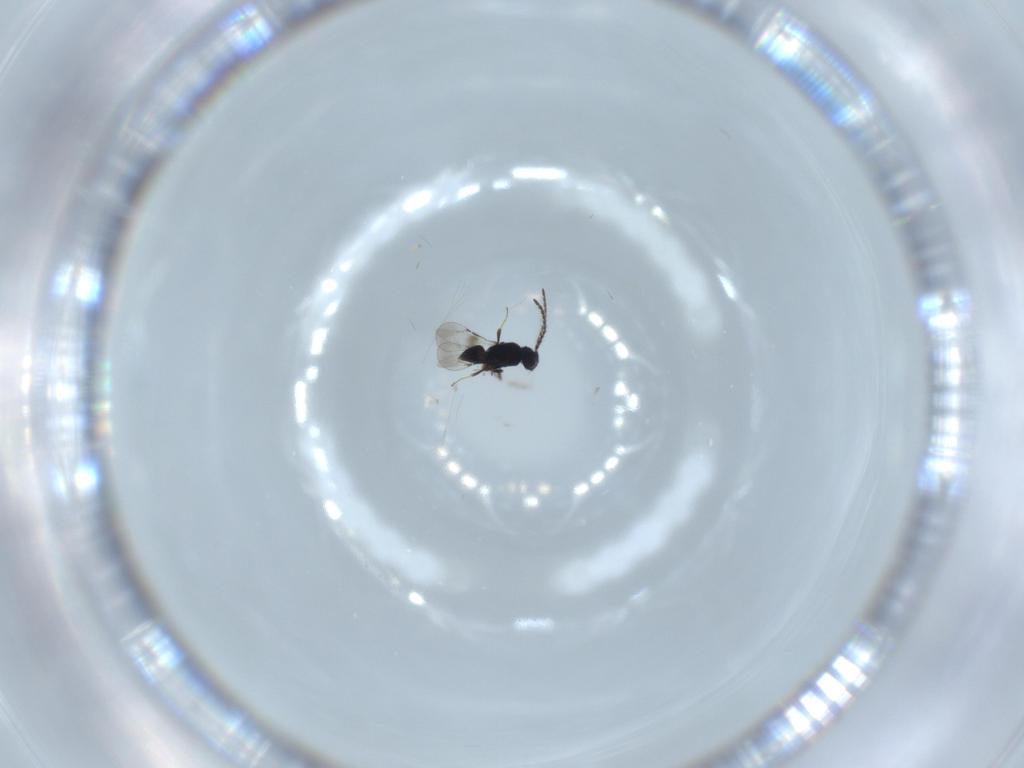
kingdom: Animalia
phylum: Arthropoda
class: Insecta
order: Hymenoptera
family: Ceraphronidae
